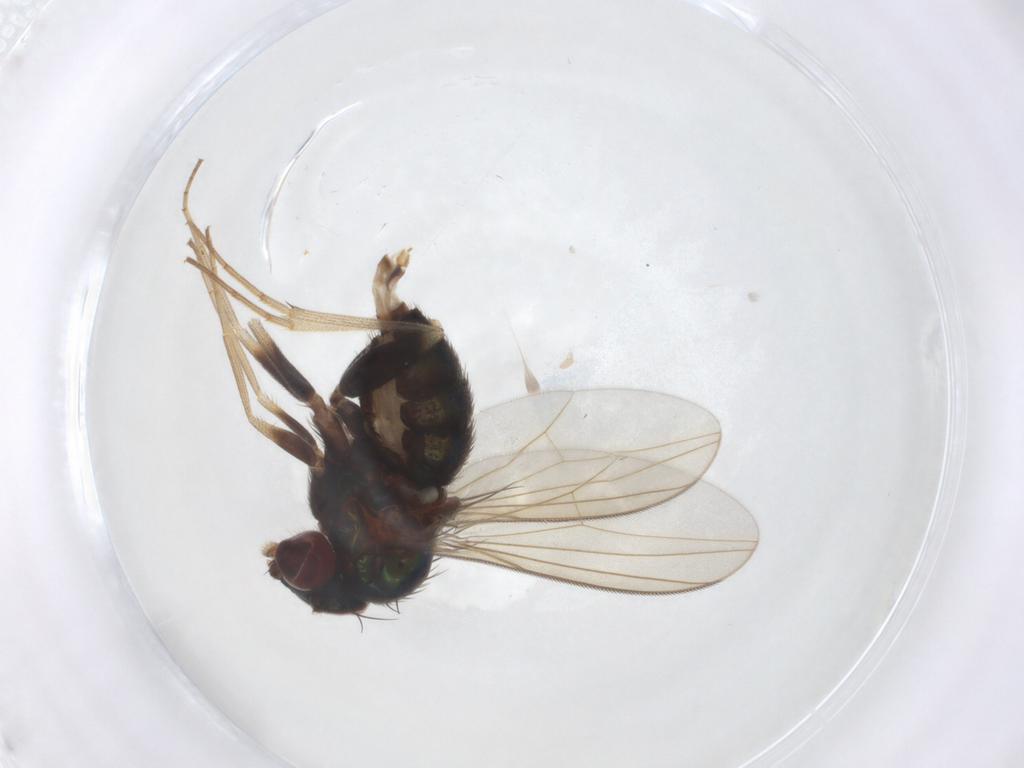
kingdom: Animalia
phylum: Arthropoda
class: Insecta
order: Diptera
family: Dolichopodidae
